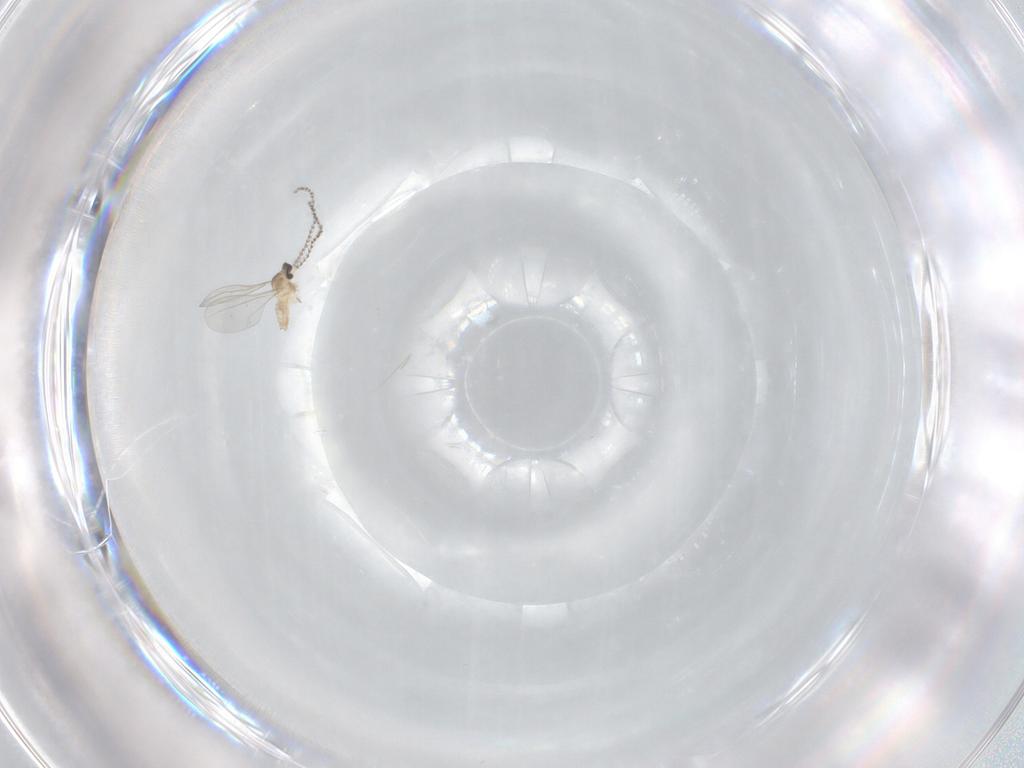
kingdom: Animalia
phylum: Arthropoda
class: Insecta
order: Diptera
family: Cecidomyiidae
